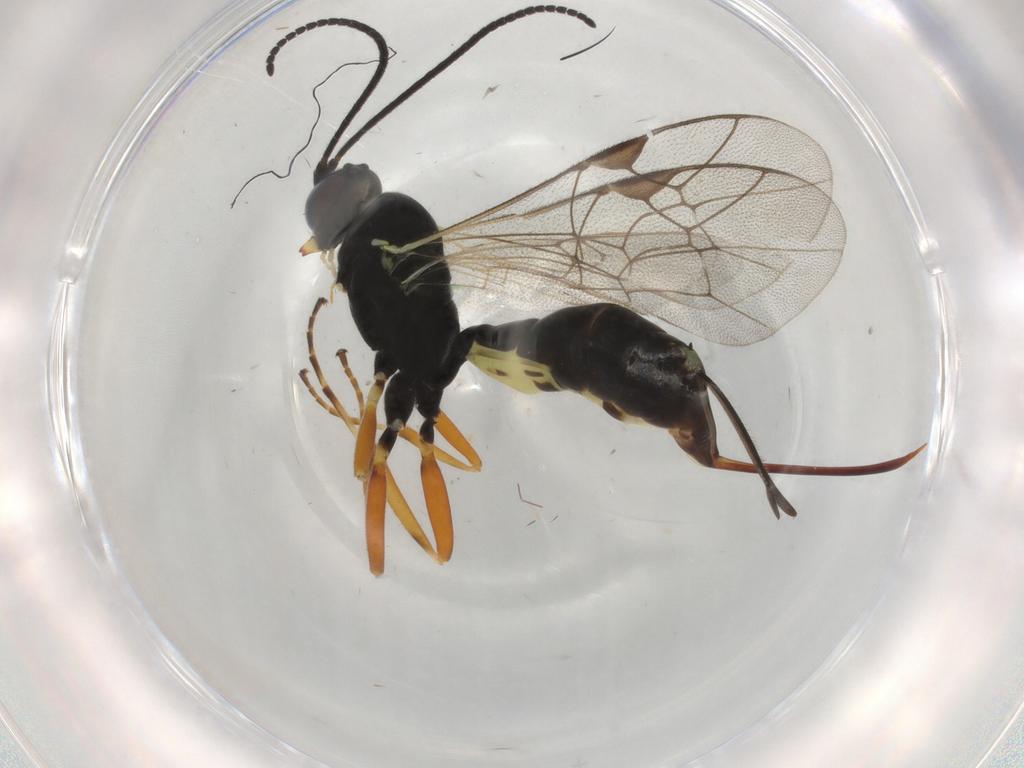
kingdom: Animalia
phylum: Arthropoda
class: Insecta
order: Hymenoptera
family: Ichneumonidae
